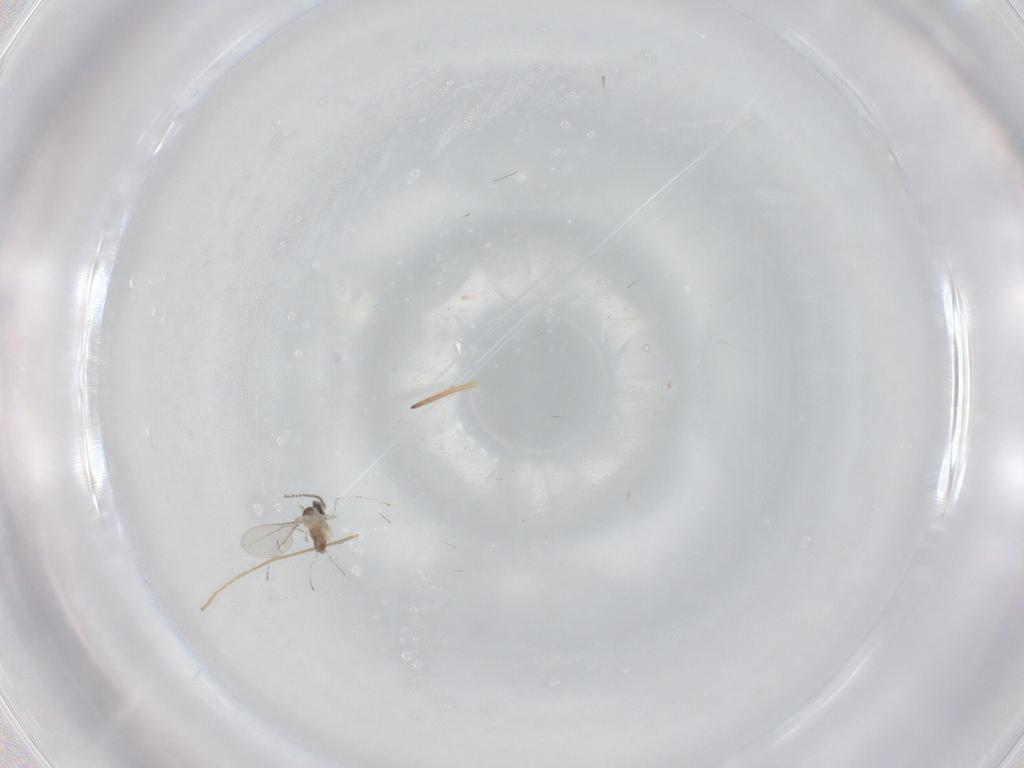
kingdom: Animalia
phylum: Arthropoda
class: Insecta
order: Diptera
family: Cecidomyiidae
